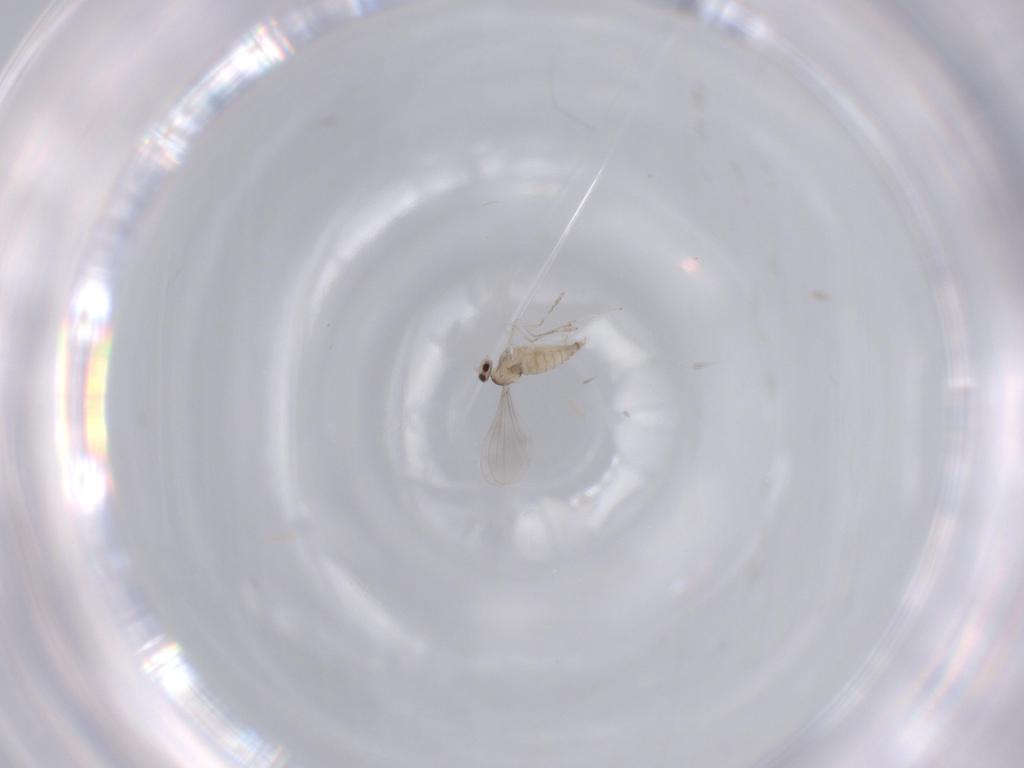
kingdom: Animalia
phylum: Arthropoda
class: Insecta
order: Diptera
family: Cecidomyiidae
